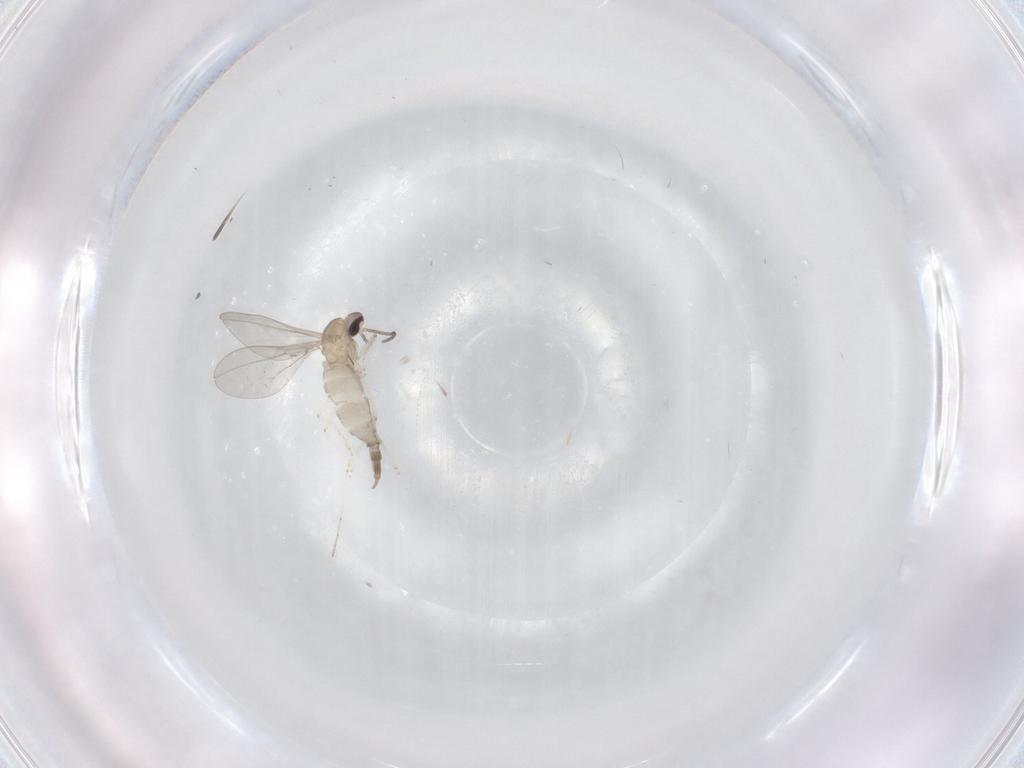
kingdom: Animalia
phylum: Arthropoda
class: Insecta
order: Diptera
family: Cecidomyiidae
